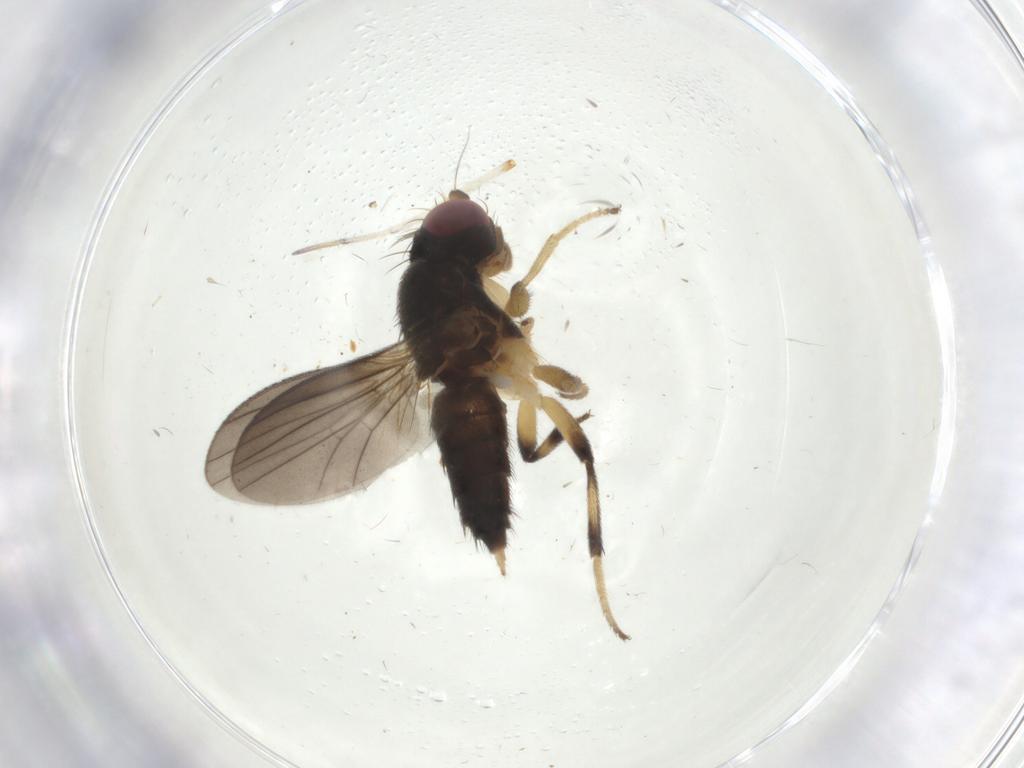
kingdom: Animalia
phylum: Arthropoda
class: Insecta
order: Diptera
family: Clusiidae
